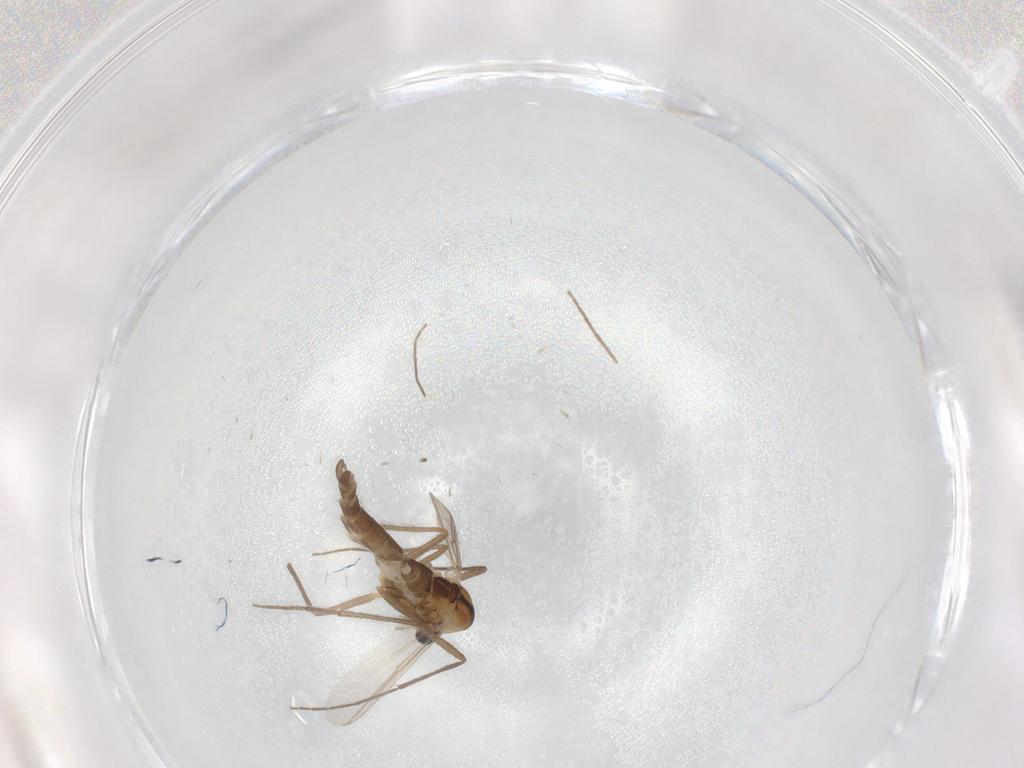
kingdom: Animalia
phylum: Arthropoda
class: Insecta
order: Diptera
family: Chironomidae
